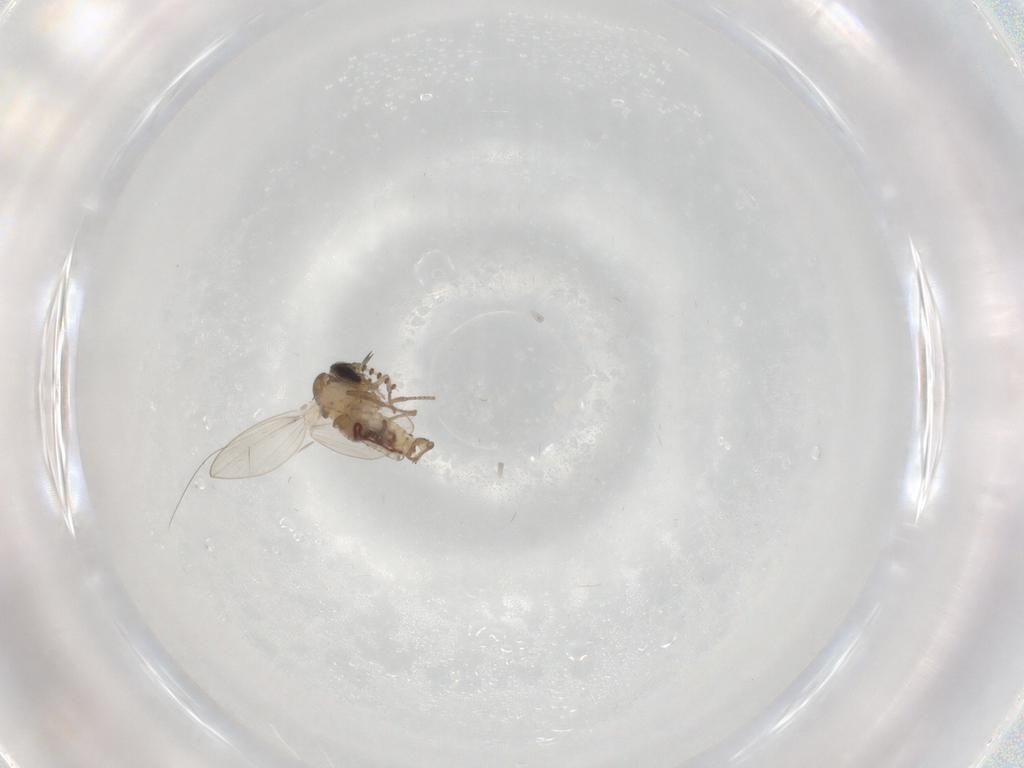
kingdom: Animalia
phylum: Arthropoda
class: Insecta
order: Diptera
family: Psychodidae
